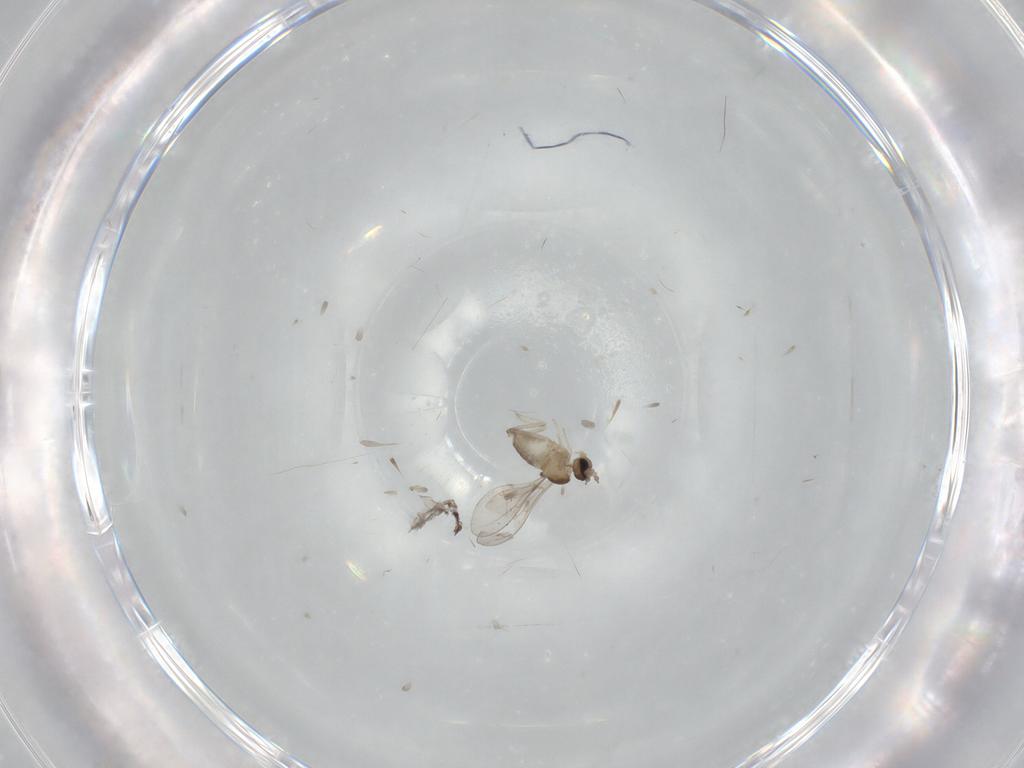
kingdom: Animalia
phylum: Arthropoda
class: Insecta
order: Diptera
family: Cecidomyiidae
